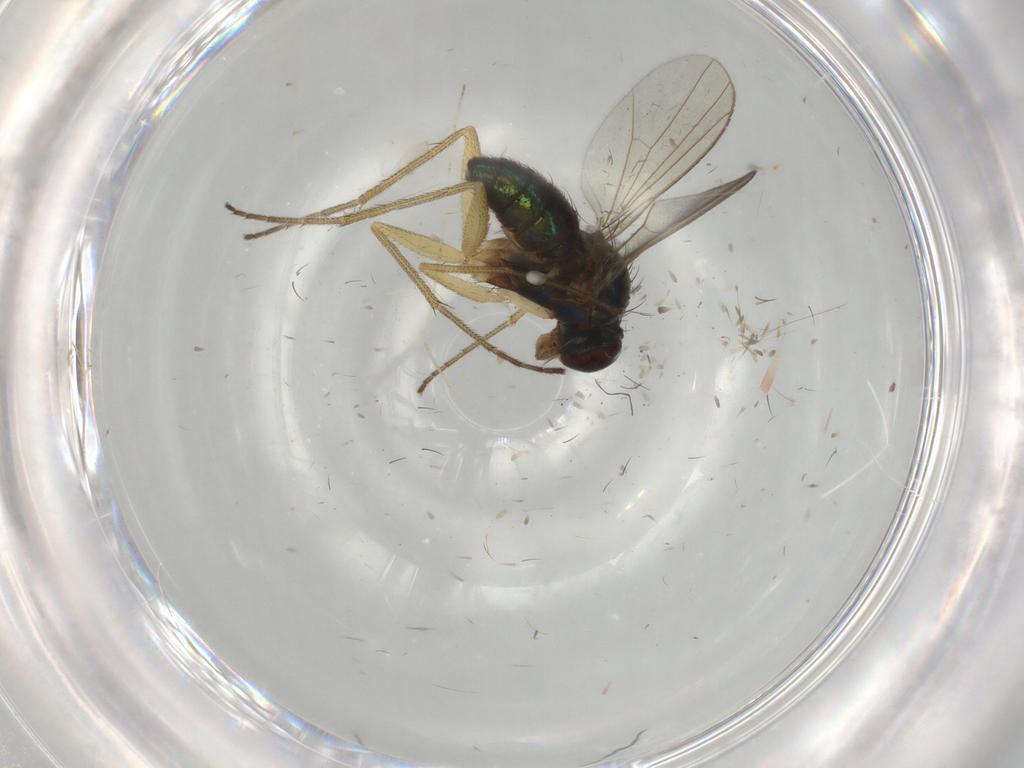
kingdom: Animalia
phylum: Arthropoda
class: Insecta
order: Diptera
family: Dolichopodidae
